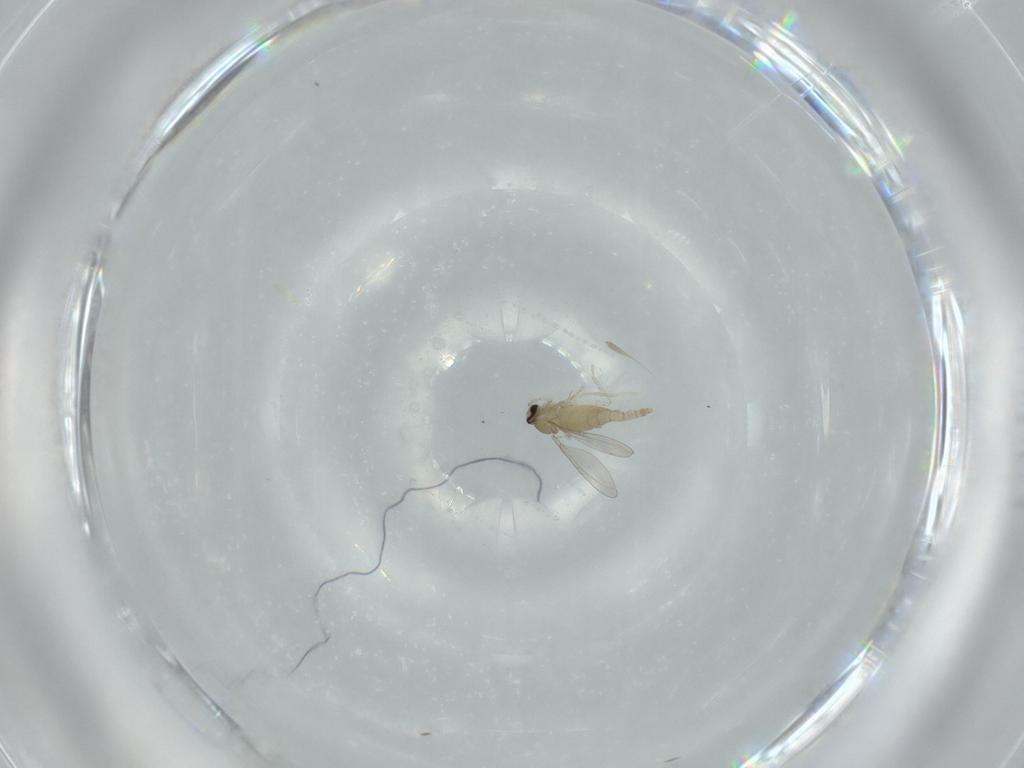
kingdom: Animalia
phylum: Arthropoda
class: Insecta
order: Diptera
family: Cecidomyiidae
